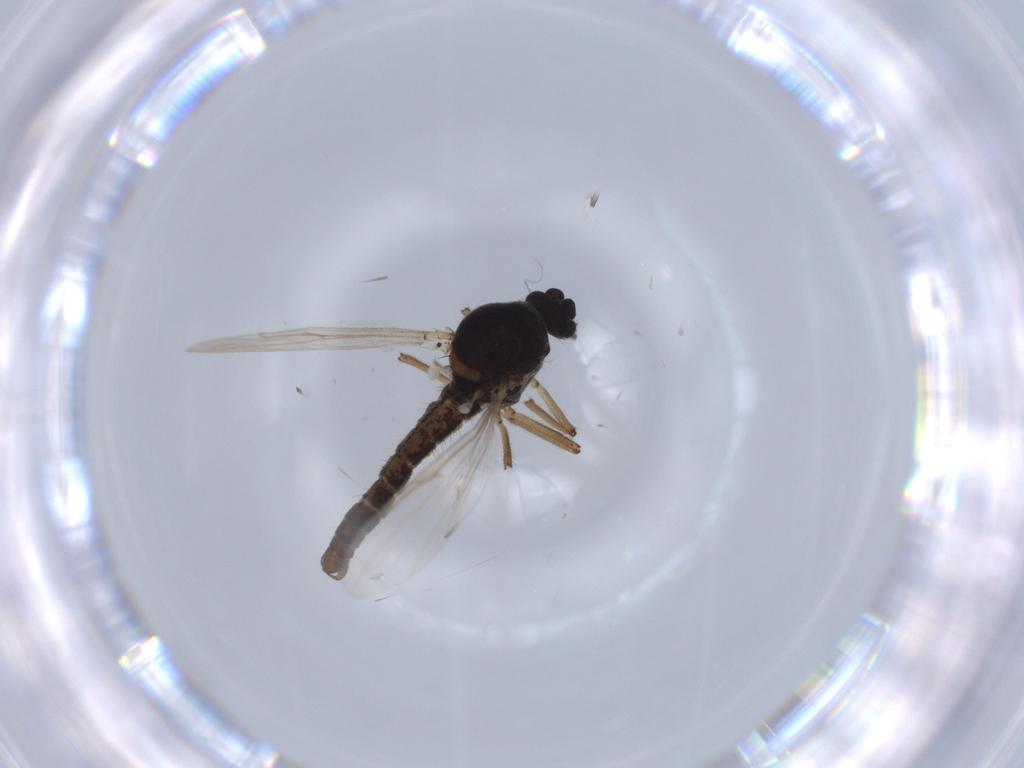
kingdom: Animalia
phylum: Arthropoda
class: Insecta
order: Diptera
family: Ceratopogonidae
